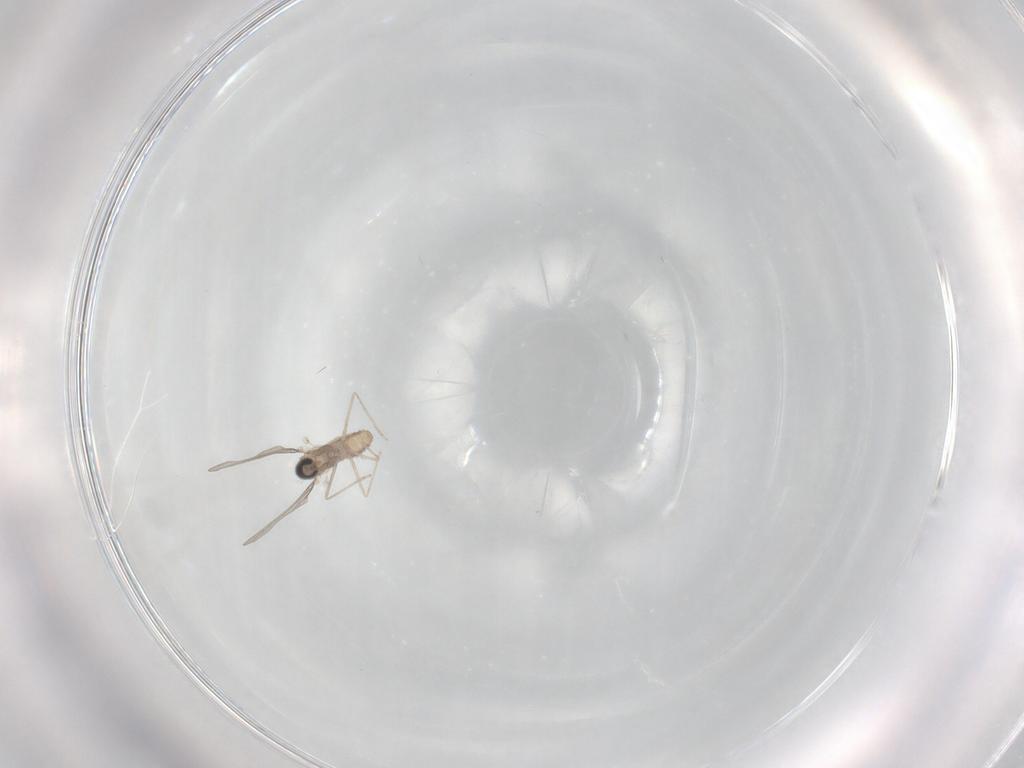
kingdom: Animalia
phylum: Arthropoda
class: Insecta
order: Diptera
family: Cecidomyiidae
